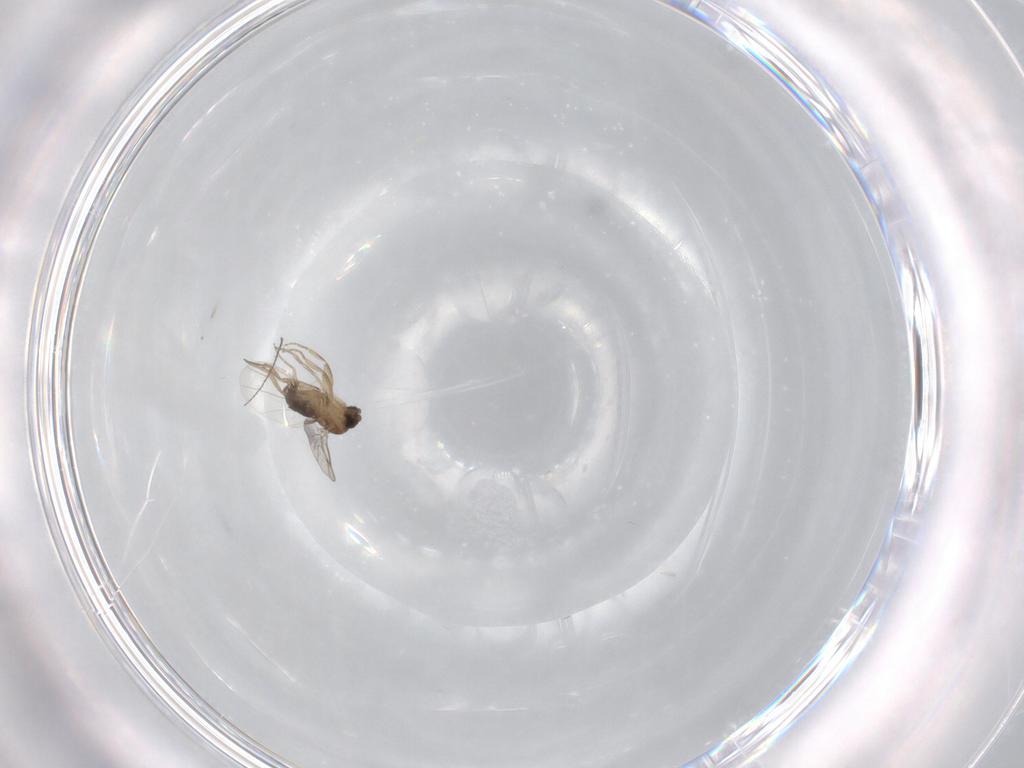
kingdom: Animalia
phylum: Arthropoda
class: Insecta
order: Diptera
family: Phoridae
